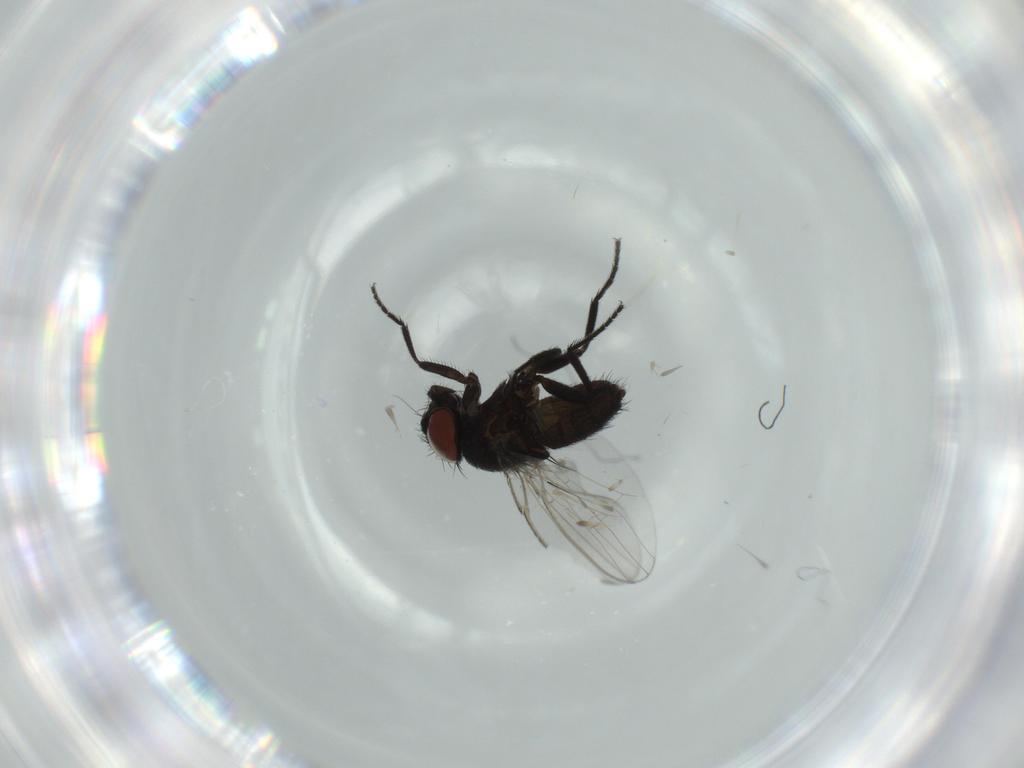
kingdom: Animalia
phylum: Arthropoda
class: Insecta
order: Diptera
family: Milichiidae
